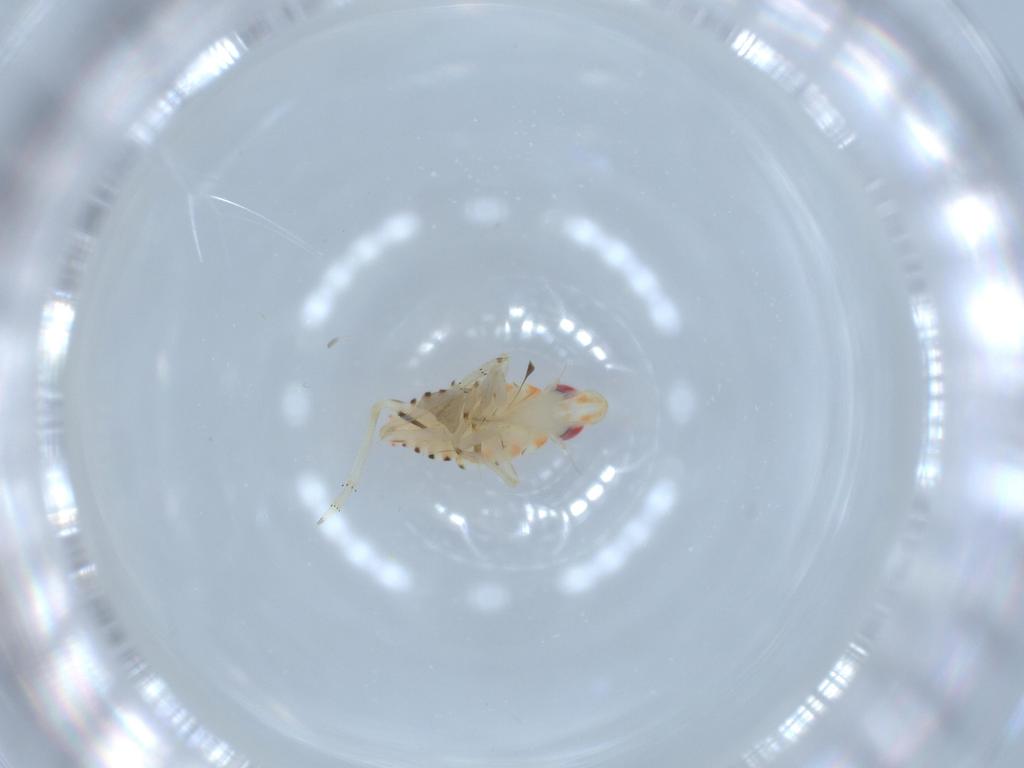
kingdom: Animalia
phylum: Arthropoda
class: Insecta
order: Hemiptera
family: Tropiduchidae
